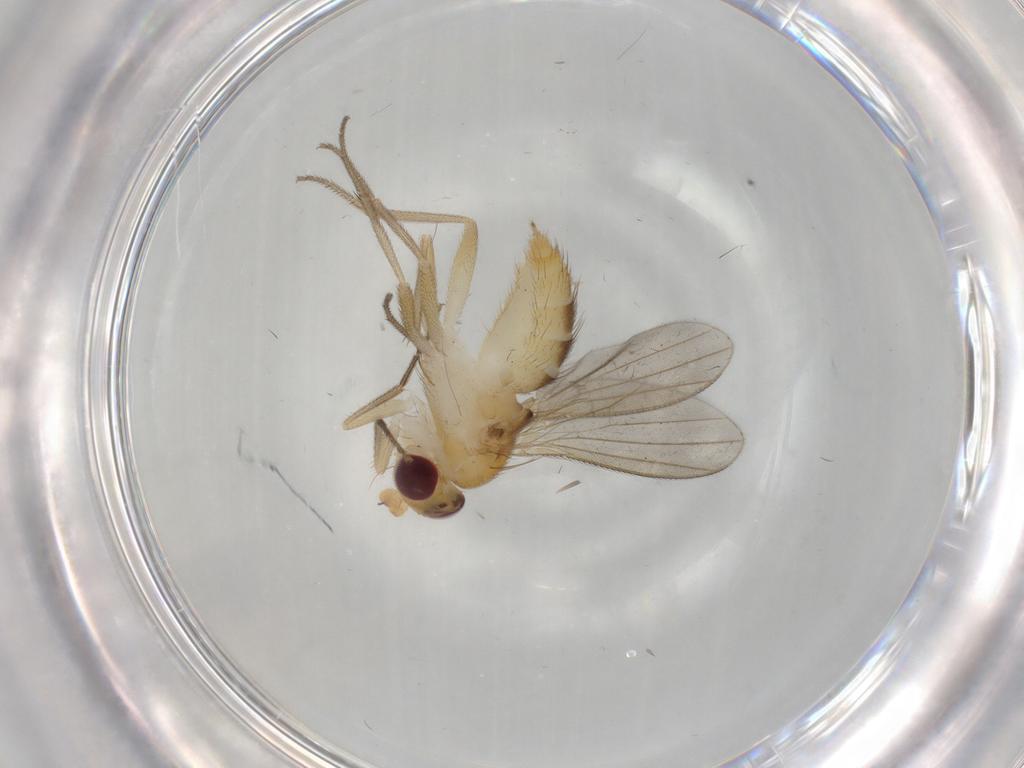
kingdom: Animalia
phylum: Arthropoda
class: Insecta
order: Diptera
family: Clusiidae
